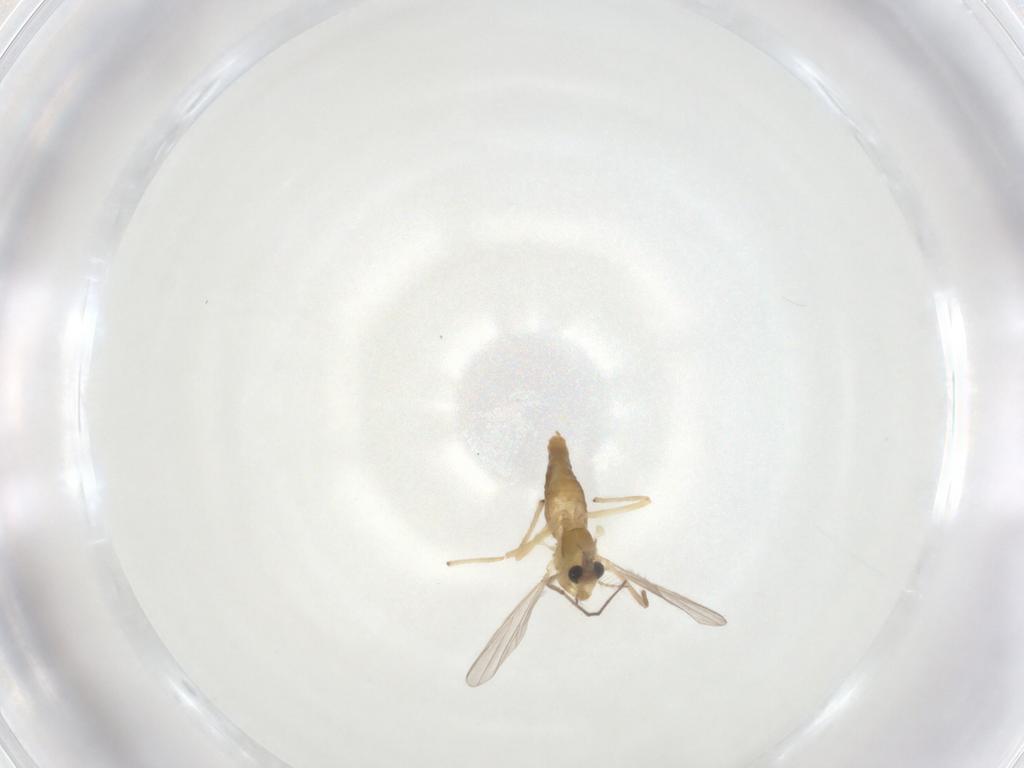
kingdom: Animalia
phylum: Arthropoda
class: Insecta
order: Diptera
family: Chironomidae
